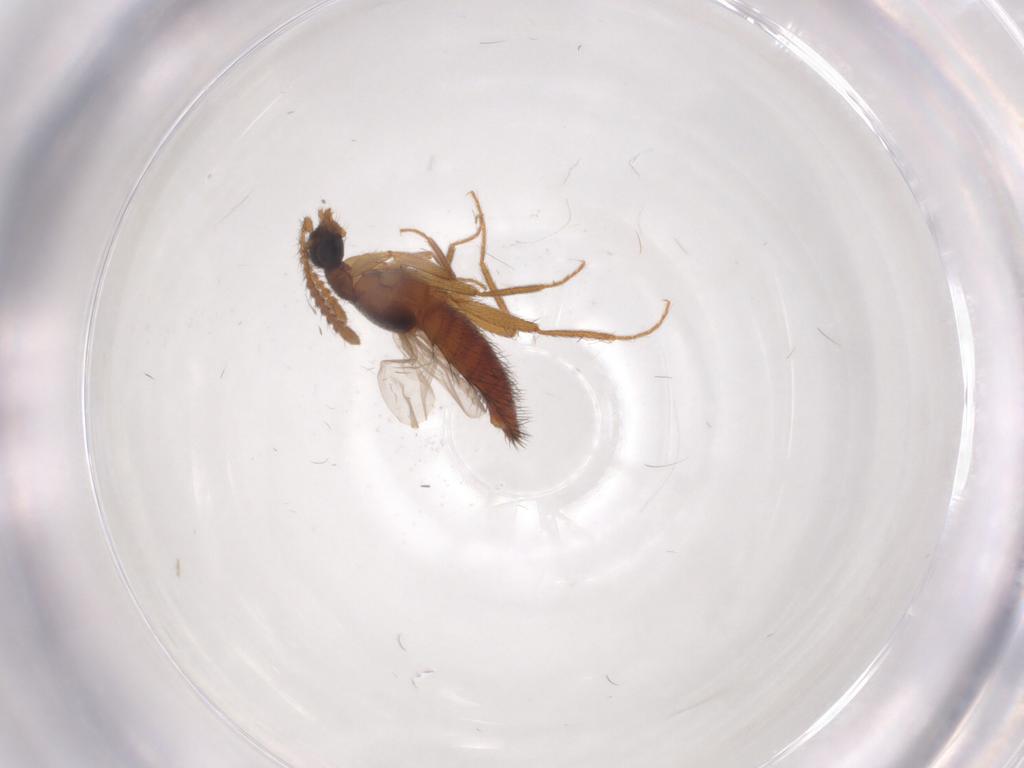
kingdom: Animalia
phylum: Arthropoda
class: Insecta
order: Coleoptera
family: Staphylinidae
